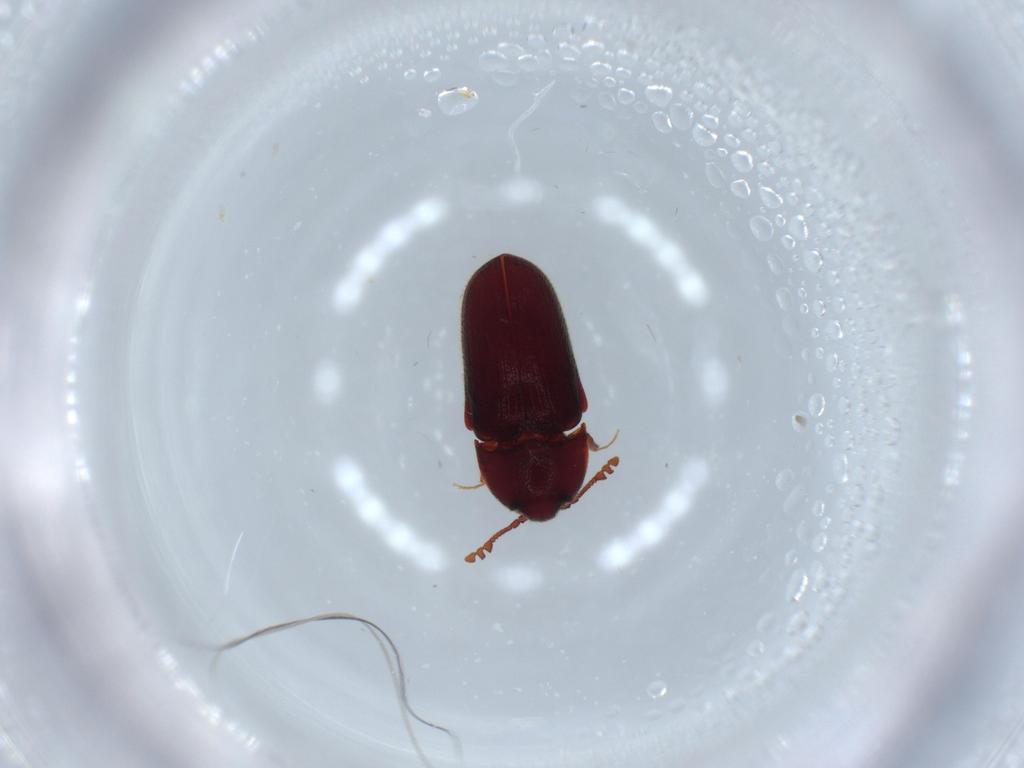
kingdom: Animalia
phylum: Arthropoda
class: Insecta
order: Coleoptera
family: Throscidae
